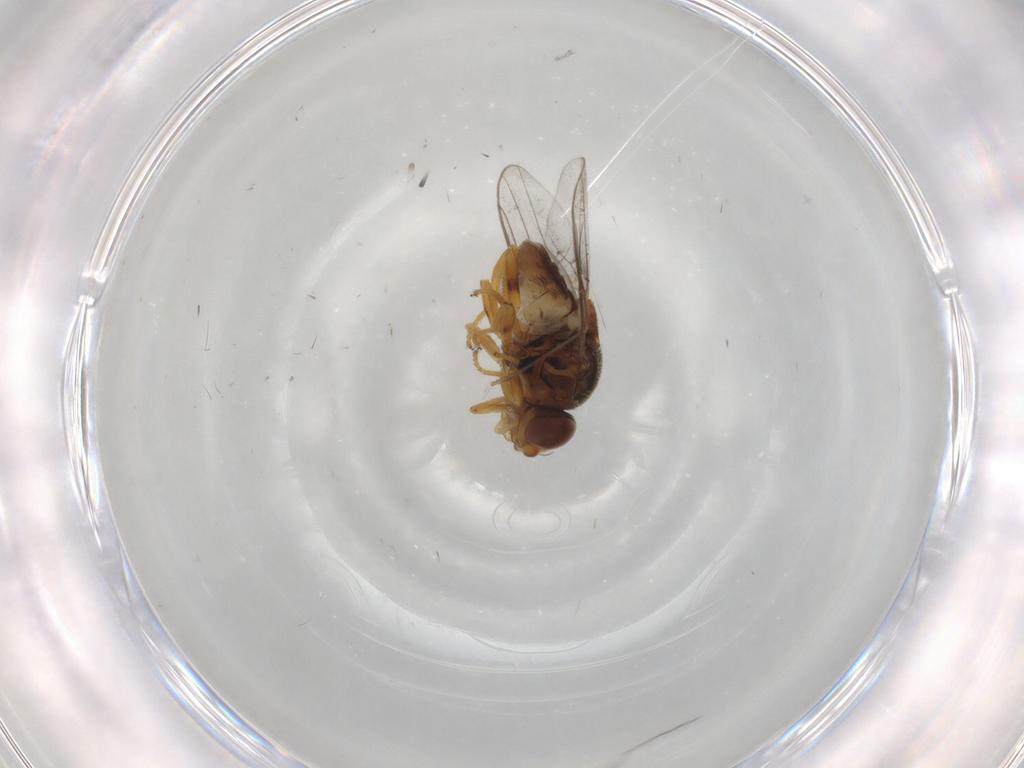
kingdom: Animalia
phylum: Arthropoda
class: Insecta
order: Diptera
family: Chloropidae
